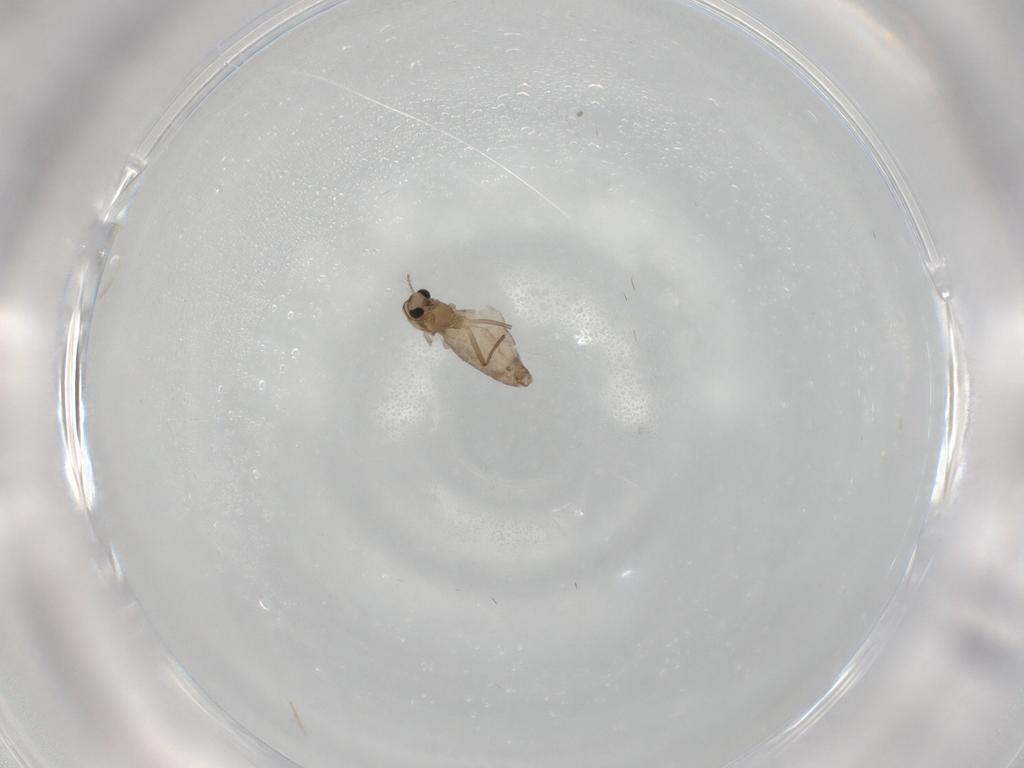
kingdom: Animalia
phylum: Arthropoda
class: Insecta
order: Diptera
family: Chironomidae
